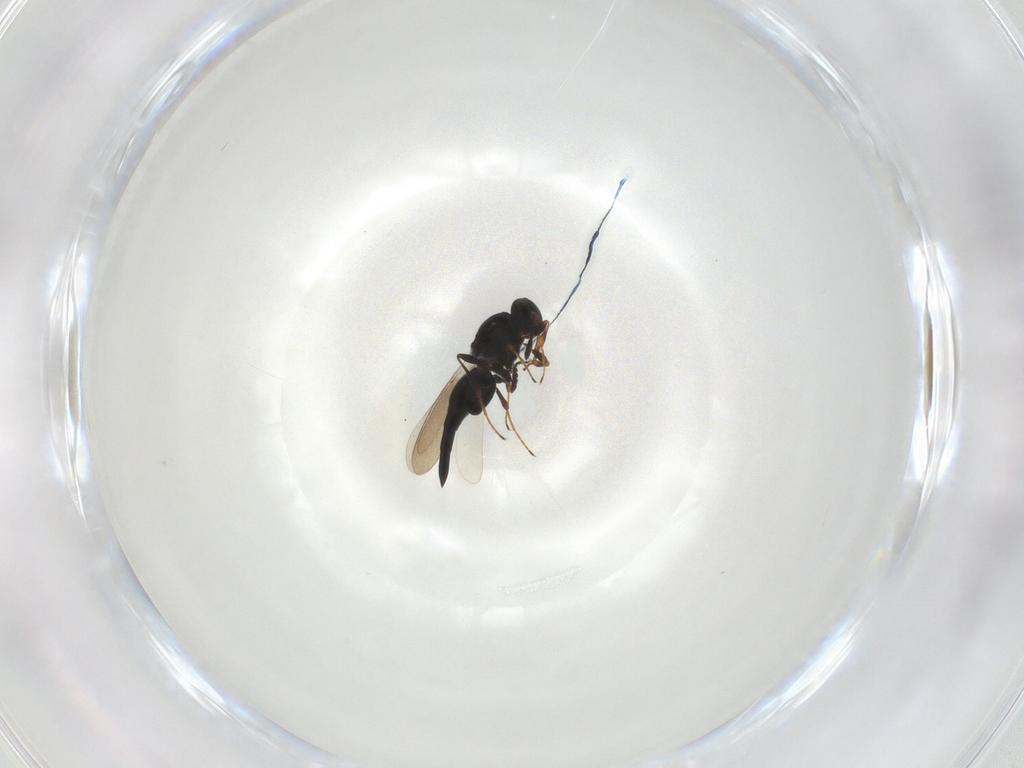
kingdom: Animalia
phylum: Arthropoda
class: Insecta
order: Hymenoptera
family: Platygastridae
